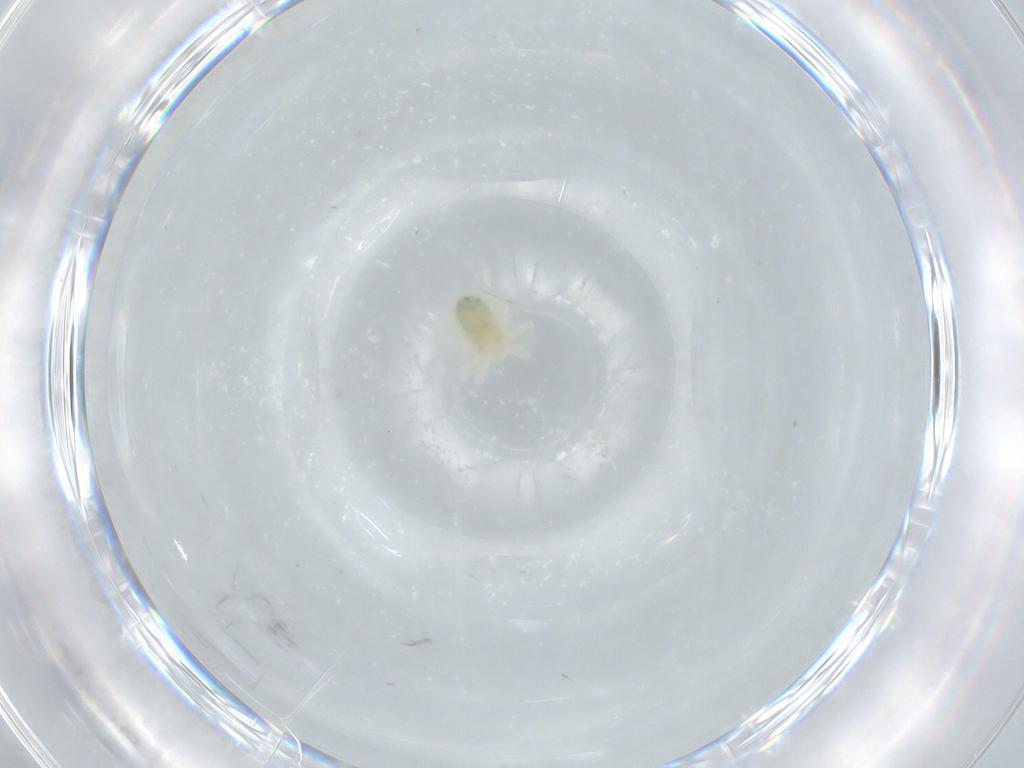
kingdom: Animalia
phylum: Arthropoda
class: Arachnida
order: Trombidiformes
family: Anystidae
